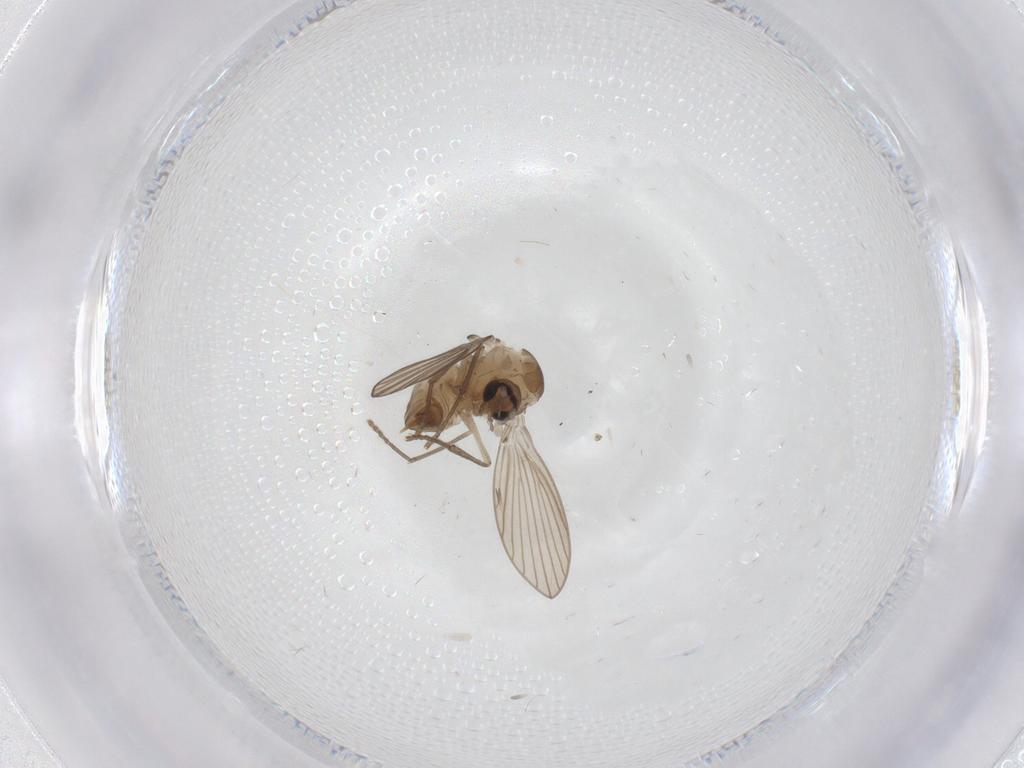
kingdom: Animalia
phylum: Arthropoda
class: Insecta
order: Diptera
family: Psychodidae
